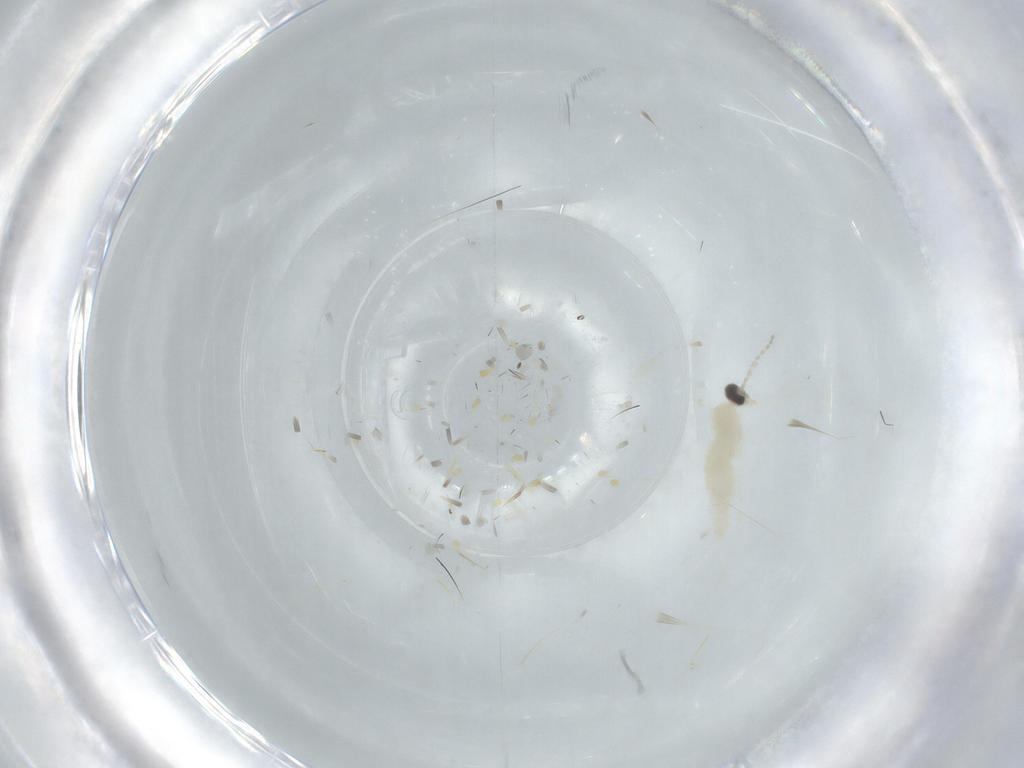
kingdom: Animalia
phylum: Arthropoda
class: Insecta
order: Diptera
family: Cecidomyiidae
